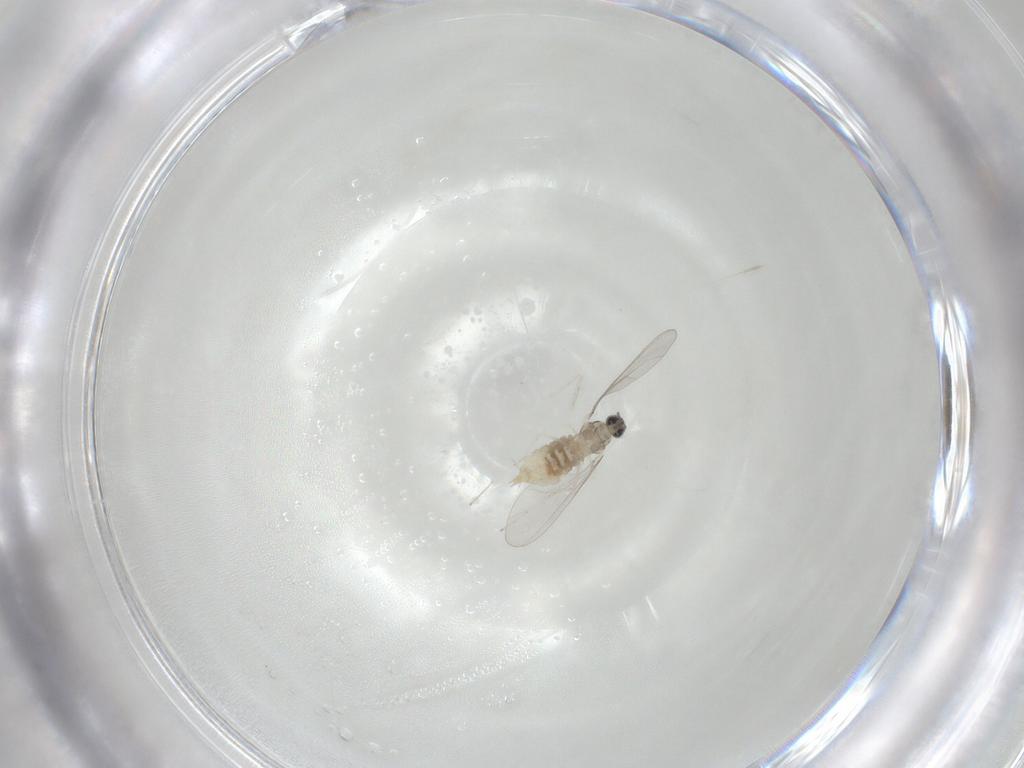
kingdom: Animalia
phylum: Arthropoda
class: Insecta
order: Diptera
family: Cecidomyiidae
